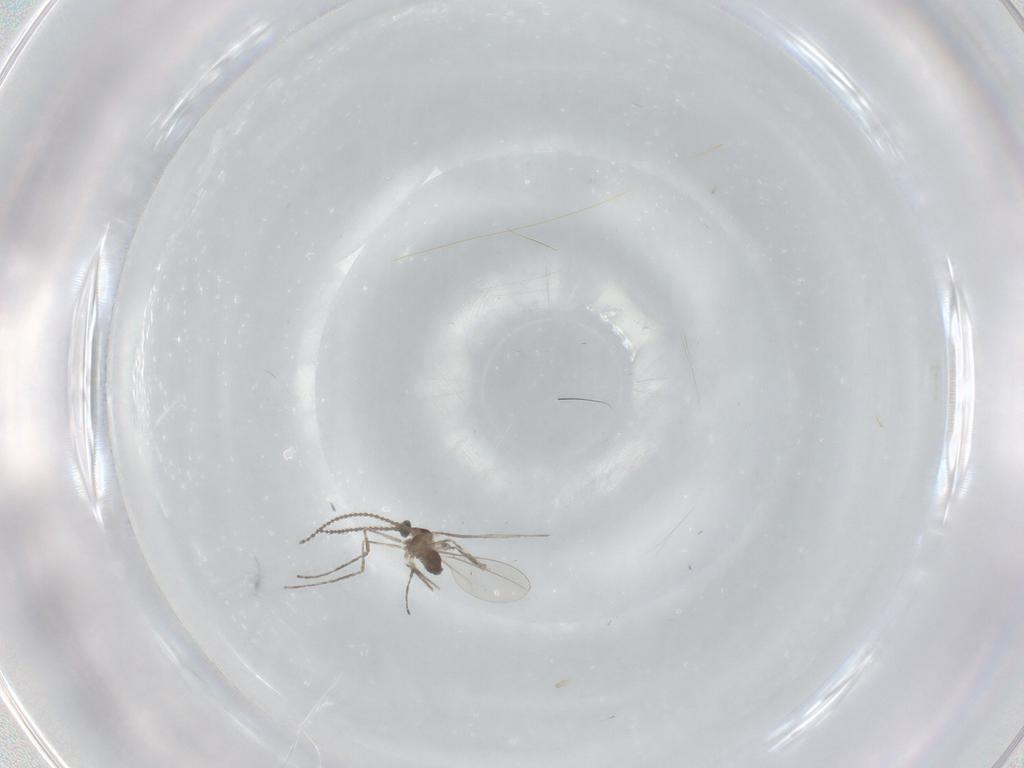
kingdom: Animalia
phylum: Arthropoda
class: Insecta
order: Diptera
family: Cecidomyiidae
